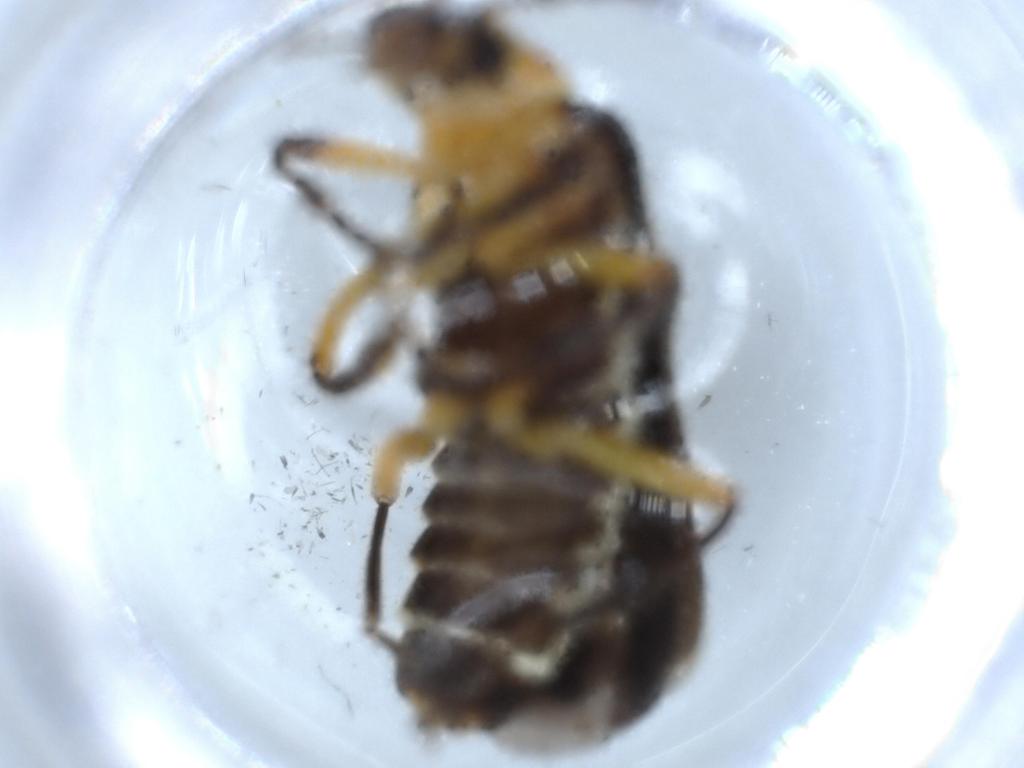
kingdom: Animalia
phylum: Arthropoda
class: Insecta
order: Coleoptera
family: Cantharidae
